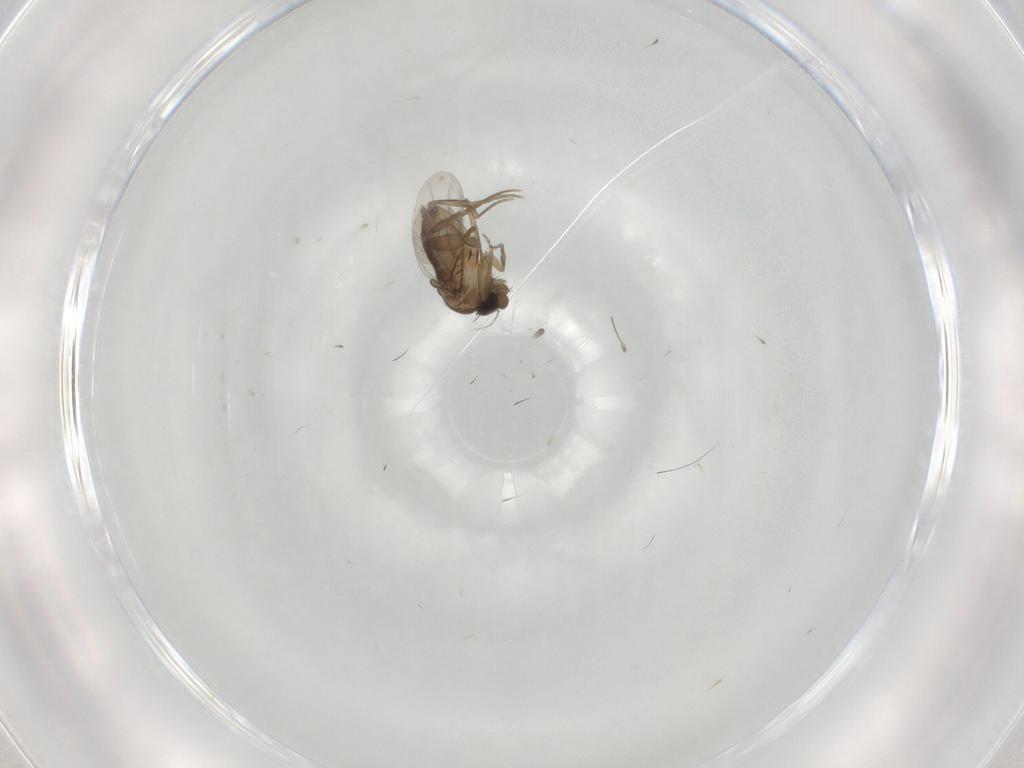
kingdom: Animalia
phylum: Arthropoda
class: Insecta
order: Diptera
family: Phoridae
